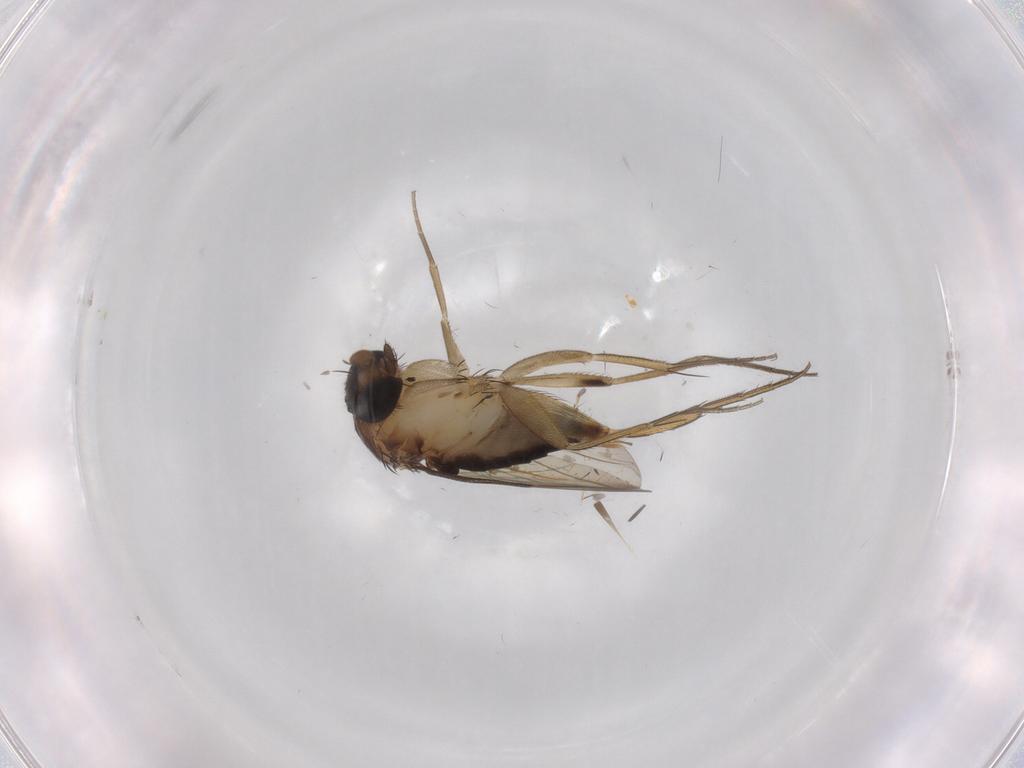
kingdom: Animalia
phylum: Arthropoda
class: Insecta
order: Diptera
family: Phoridae
